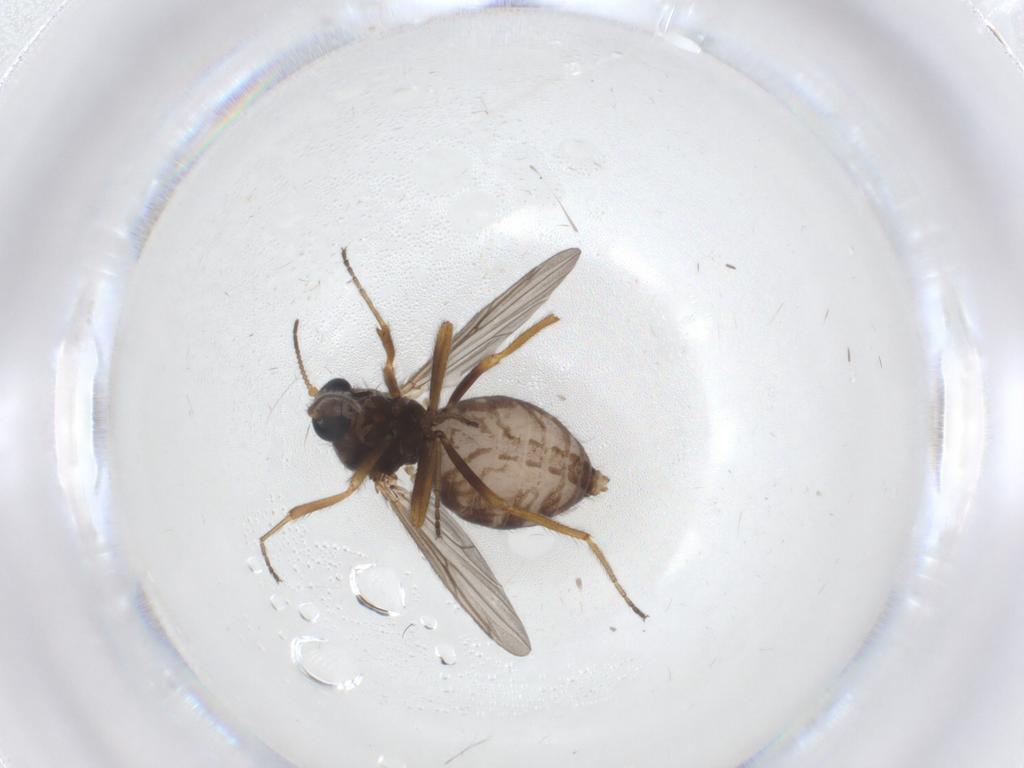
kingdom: Animalia
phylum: Arthropoda
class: Insecta
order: Diptera
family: Ceratopogonidae
